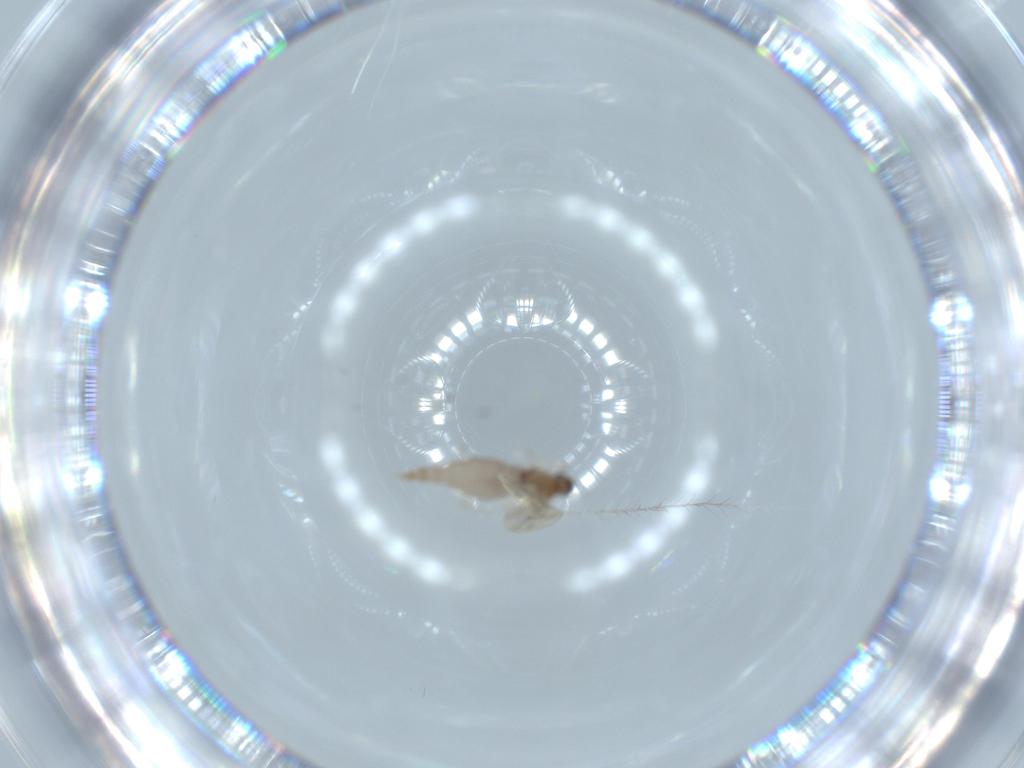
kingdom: Animalia
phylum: Arthropoda
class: Insecta
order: Diptera
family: Cecidomyiidae
